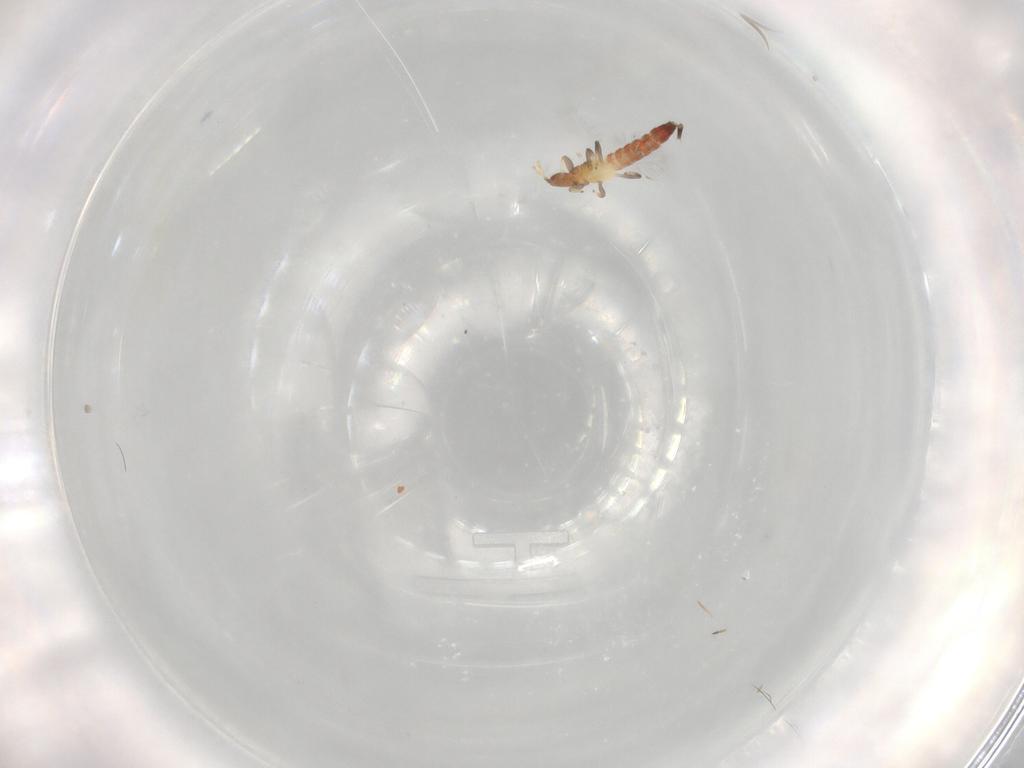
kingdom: Animalia
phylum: Arthropoda
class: Insecta
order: Thysanoptera
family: Phlaeothripidae
